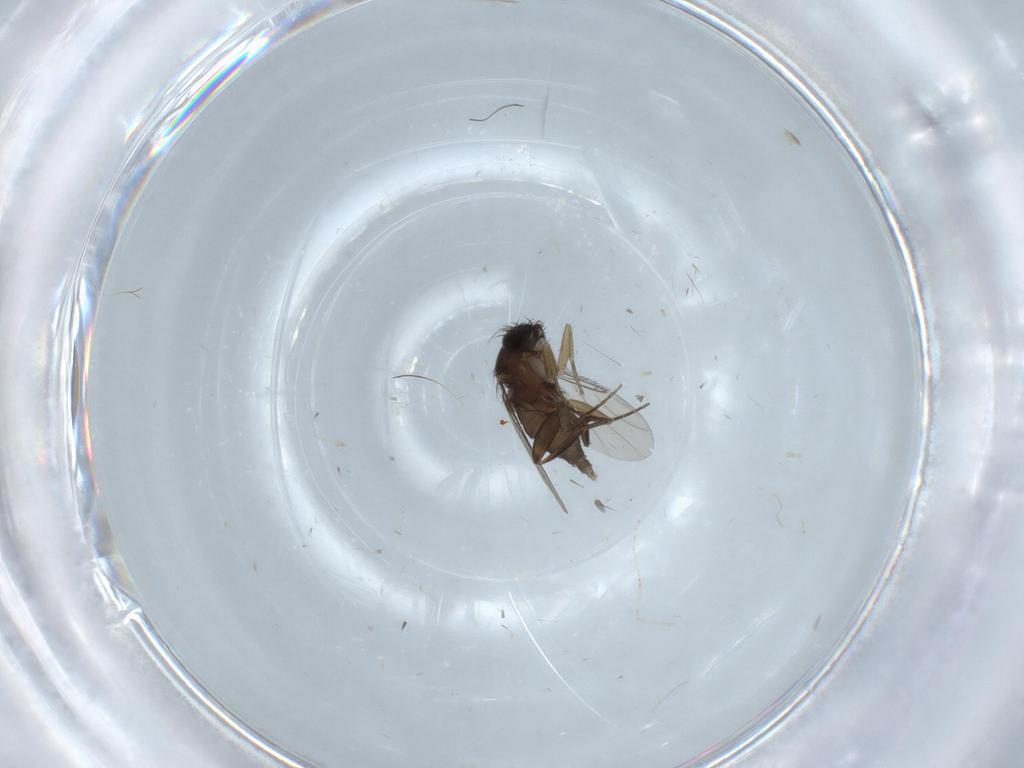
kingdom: Animalia
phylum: Arthropoda
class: Insecta
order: Diptera
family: Phoridae
